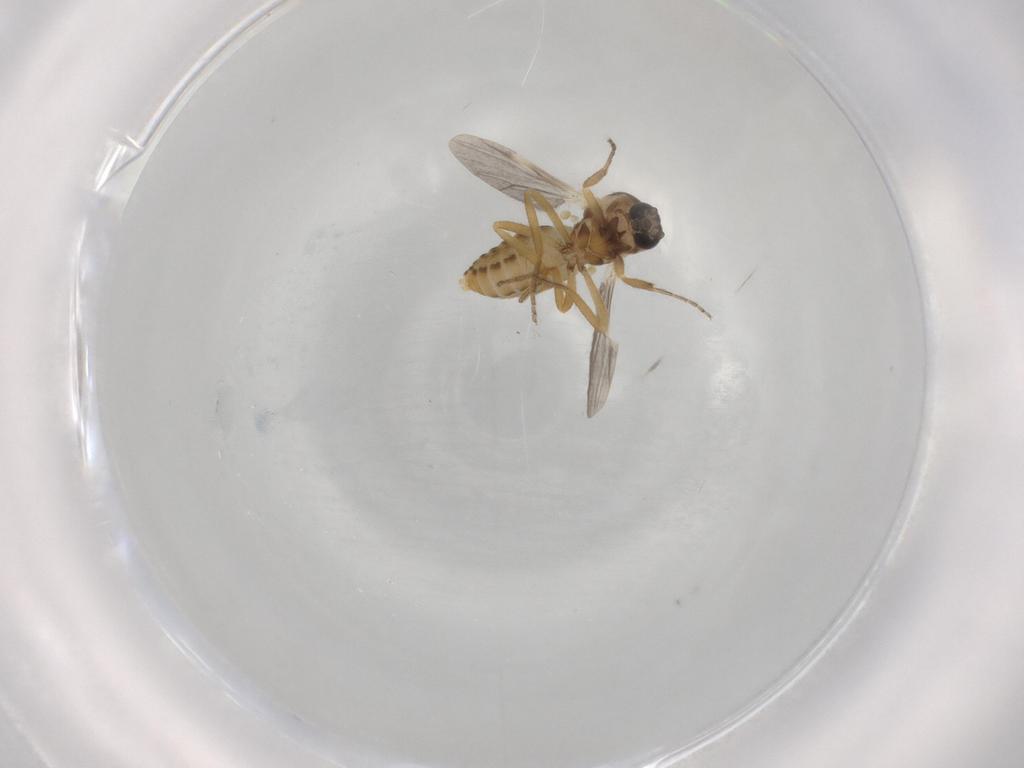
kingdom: Animalia
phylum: Arthropoda
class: Insecta
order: Diptera
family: Ceratopogonidae
